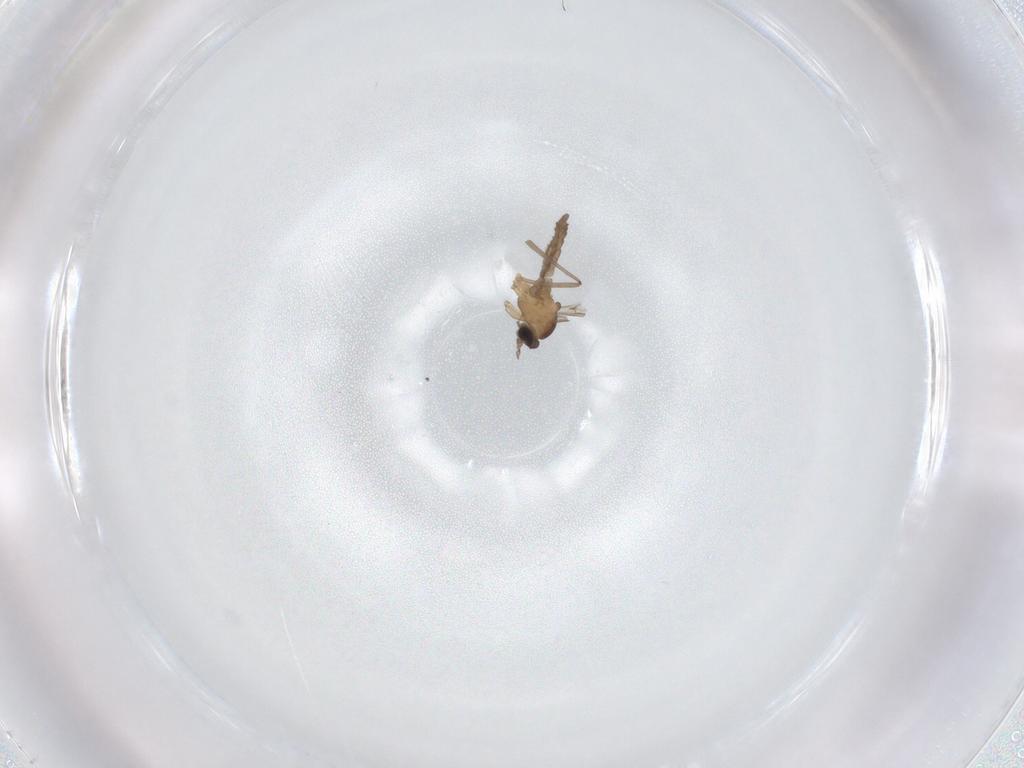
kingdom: Animalia
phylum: Arthropoda
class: Insecta
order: Diptera
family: Cecidomyiidae
